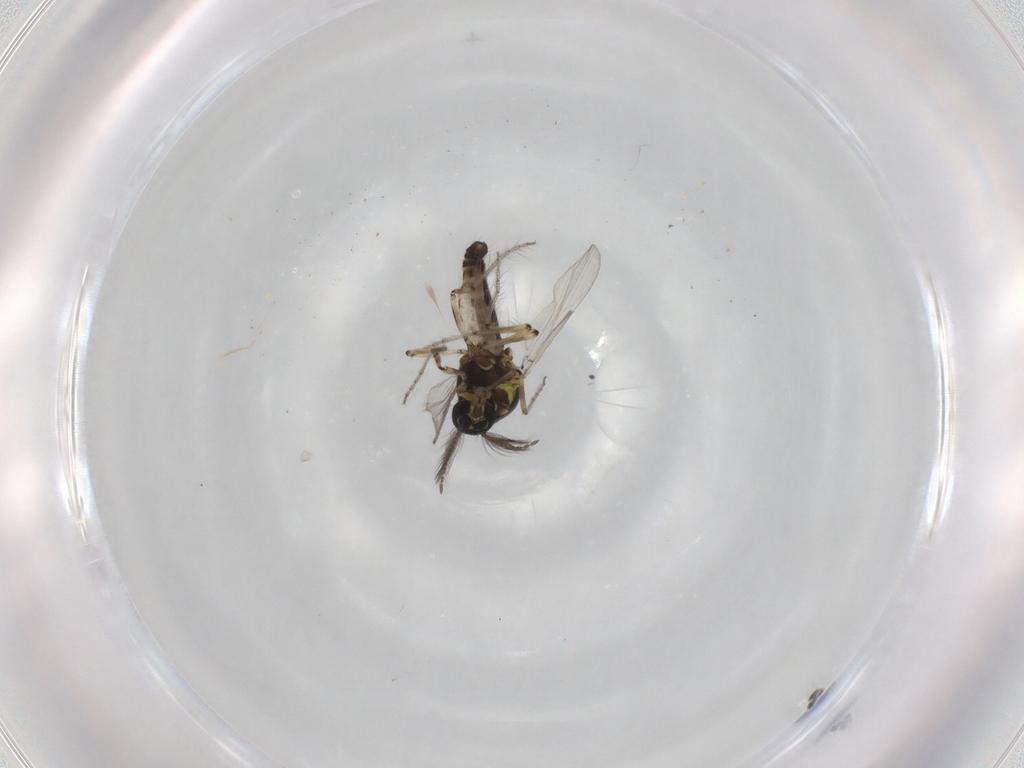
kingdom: Animalia
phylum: Arthropoda
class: Insecta
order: Diptera
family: Ceratopogonidae
